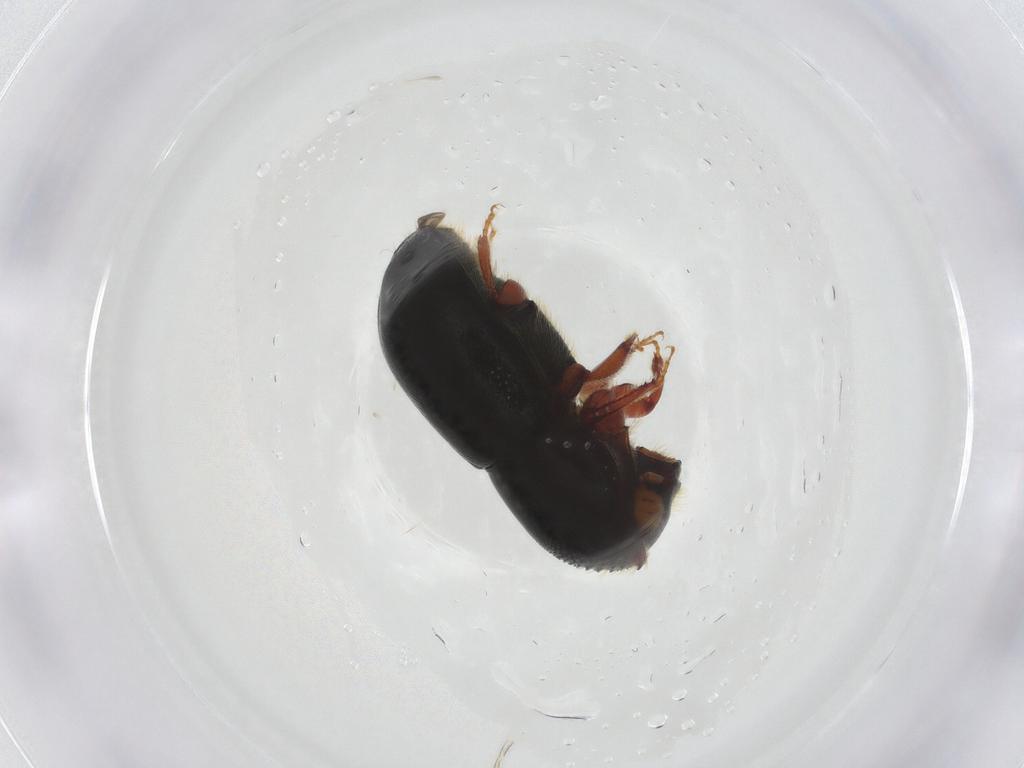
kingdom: Animalia
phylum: Arthropoda
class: Insecta
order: Coleoptera
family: Curculionidae
